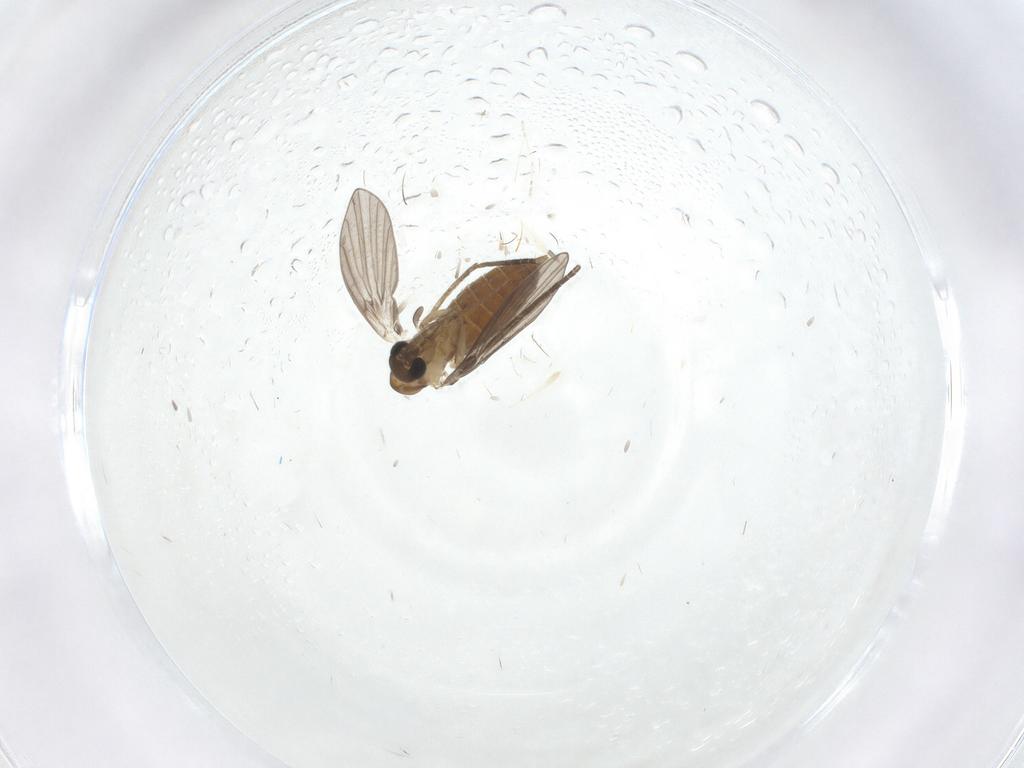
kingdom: Animalia
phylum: Arthropoda
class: Insecta
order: Diptera
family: Cecidomyiidae
